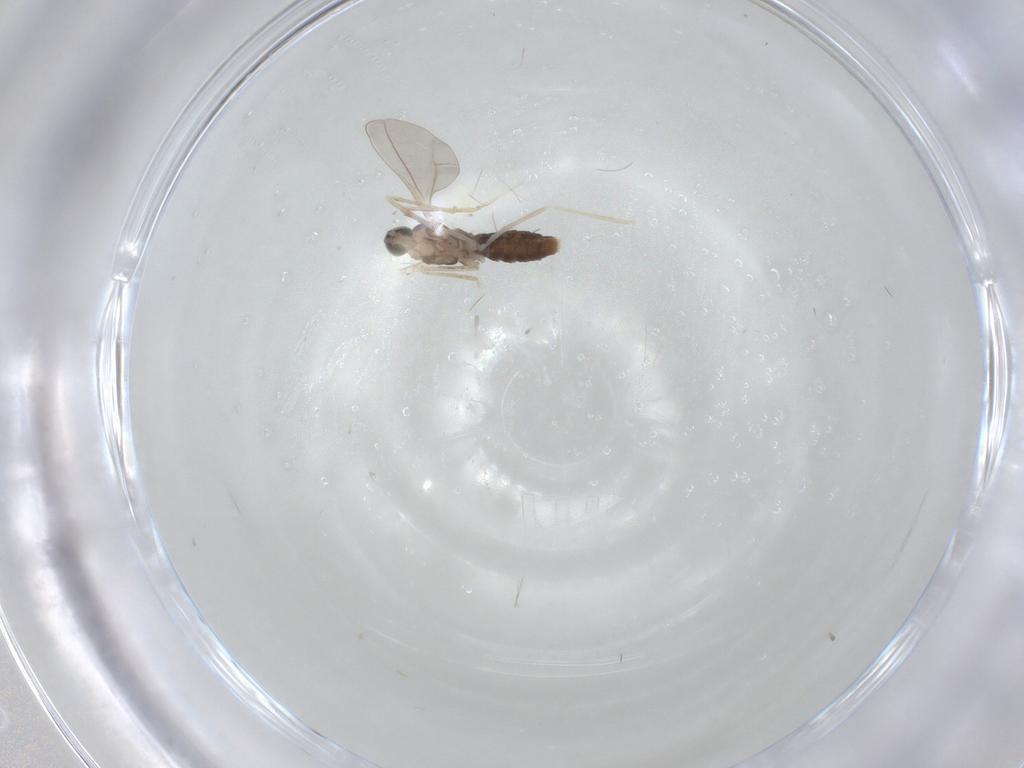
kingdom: Animalia
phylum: Arthropoda
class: Insecta
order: Diptera
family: Cecidomyiidae
